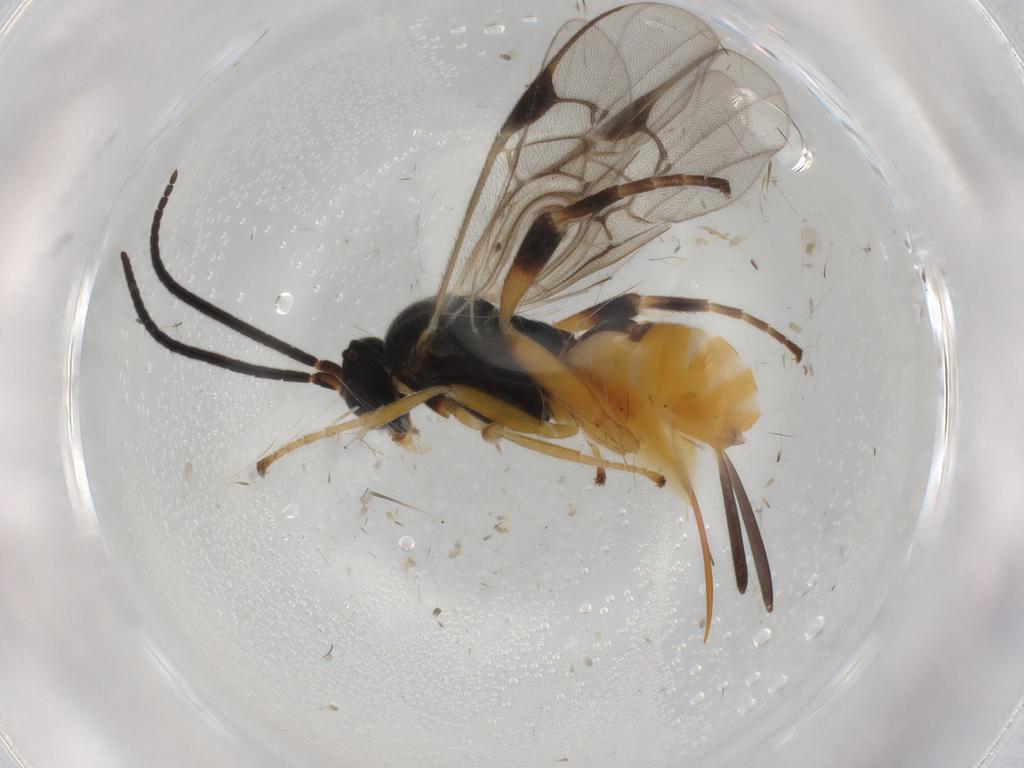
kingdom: Animalia
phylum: Arthropoda
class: Insecta
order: Hymenoptera
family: Braconidae
